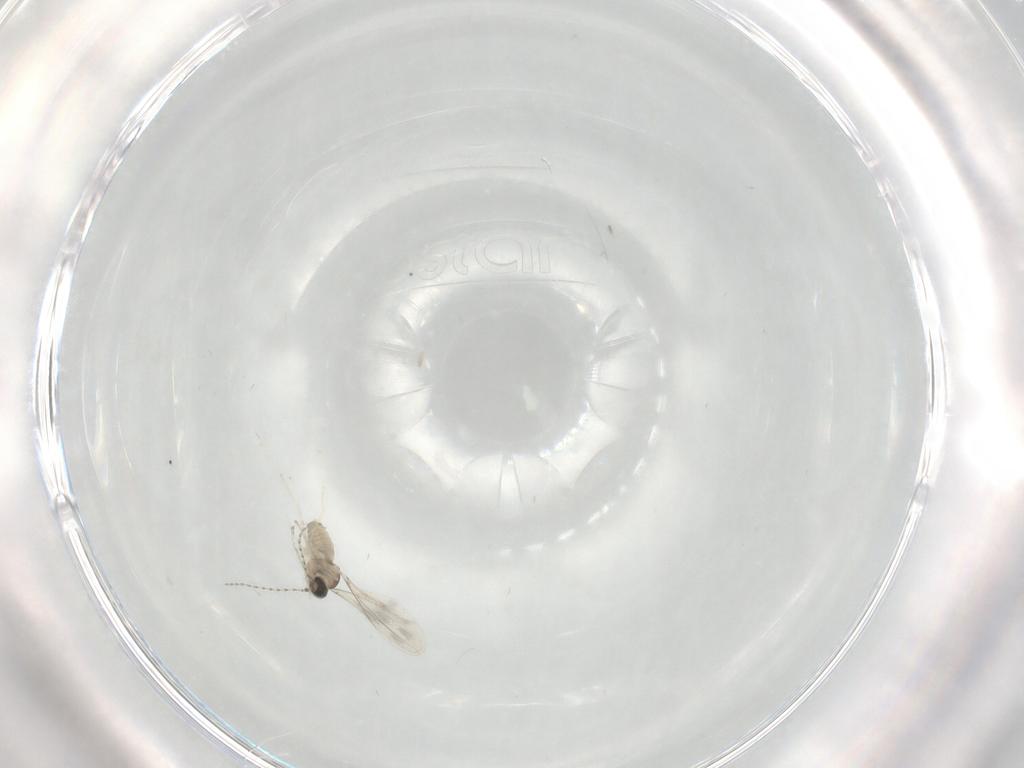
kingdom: Animalia
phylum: Arthropoda
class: Insecta
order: Diptera
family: Cecidomyiidae
